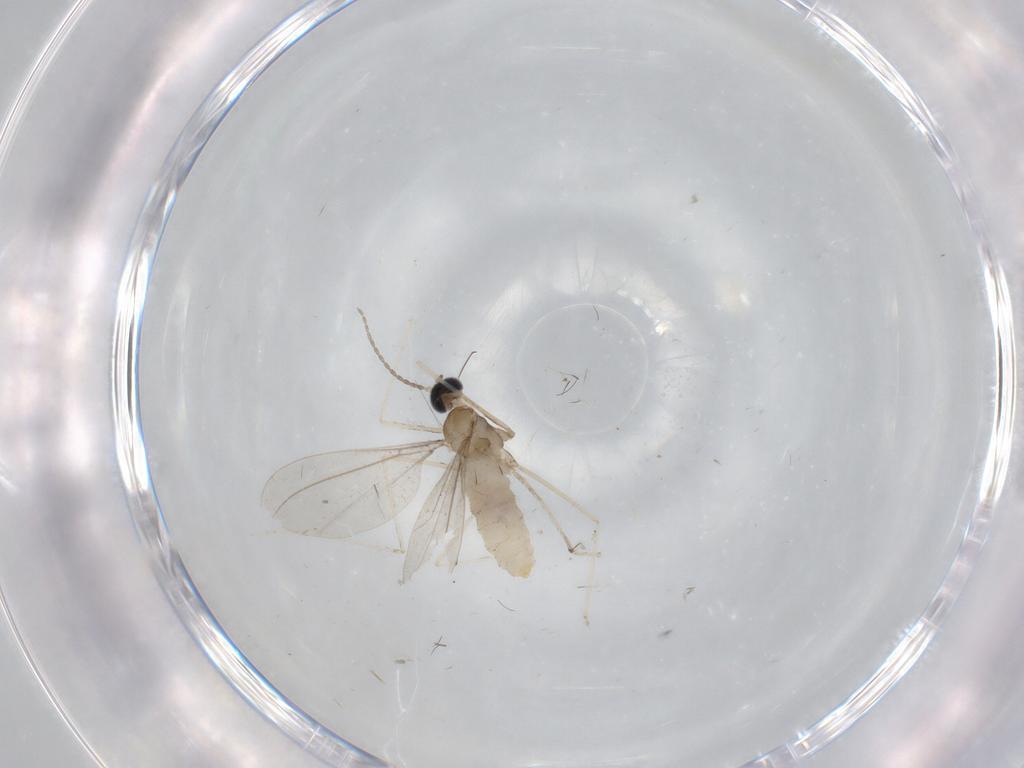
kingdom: Animalia
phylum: Arthropoda
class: Insecta
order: Diptera
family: Cecidomyiidae
